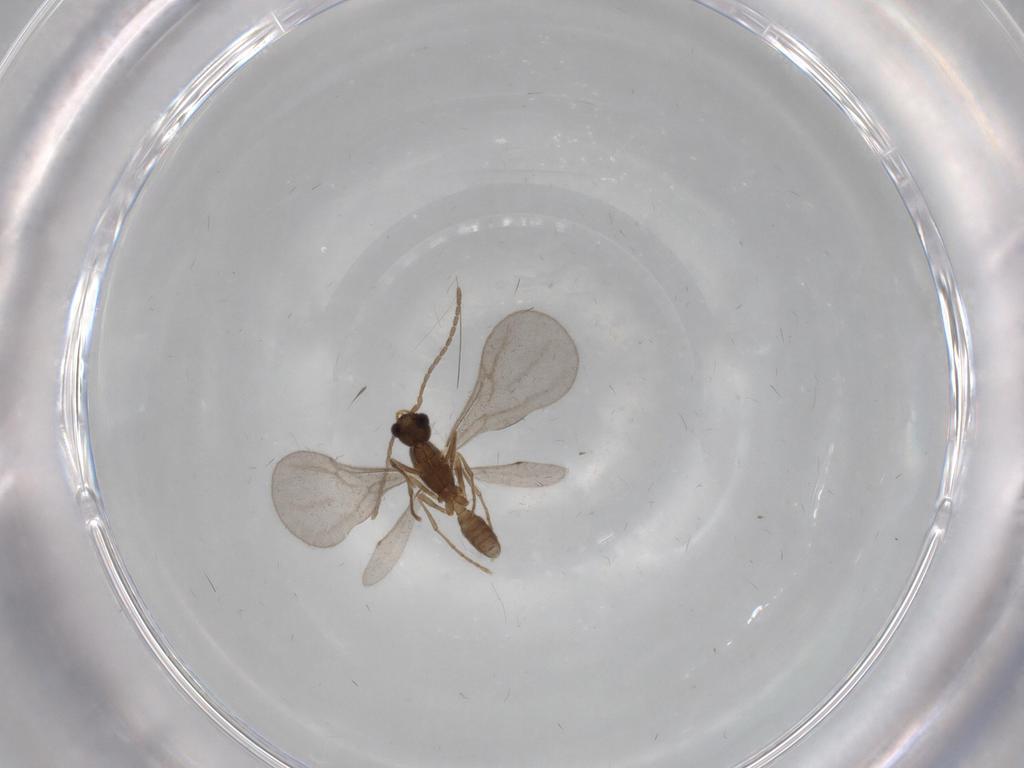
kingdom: Animalia
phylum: Arthropoda
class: Insecta
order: Hymenoptera
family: Formicidae
